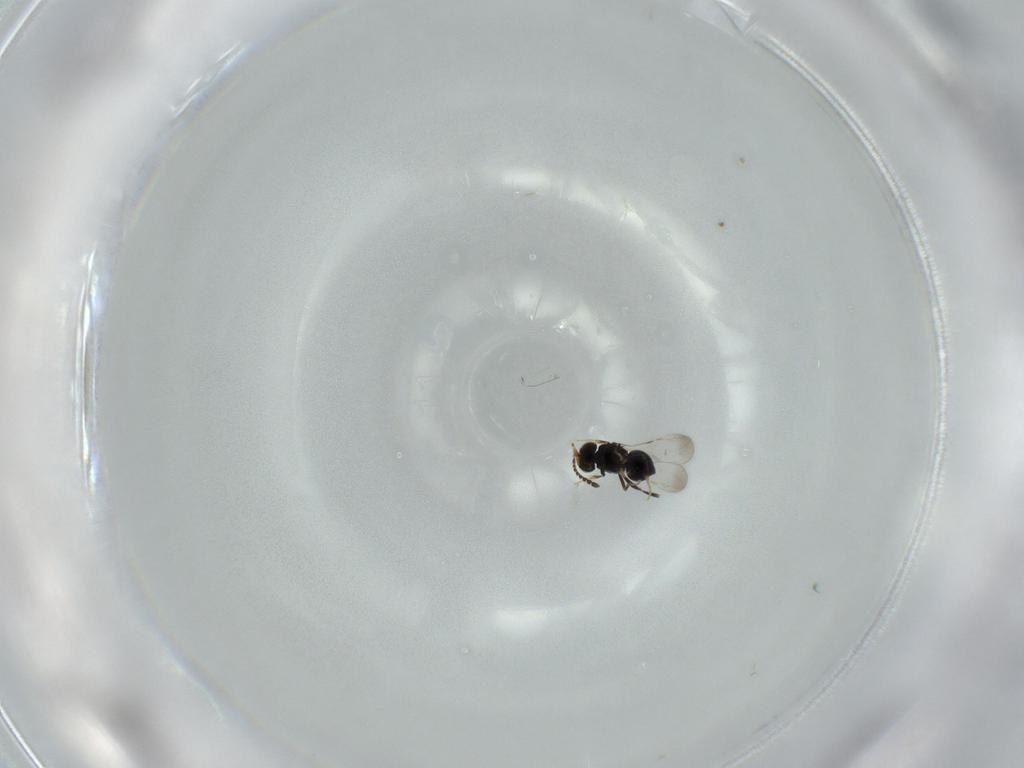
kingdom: Animalia
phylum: Arthropoda
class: Insecta
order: Hymenoptera
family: Ceraphronidae
